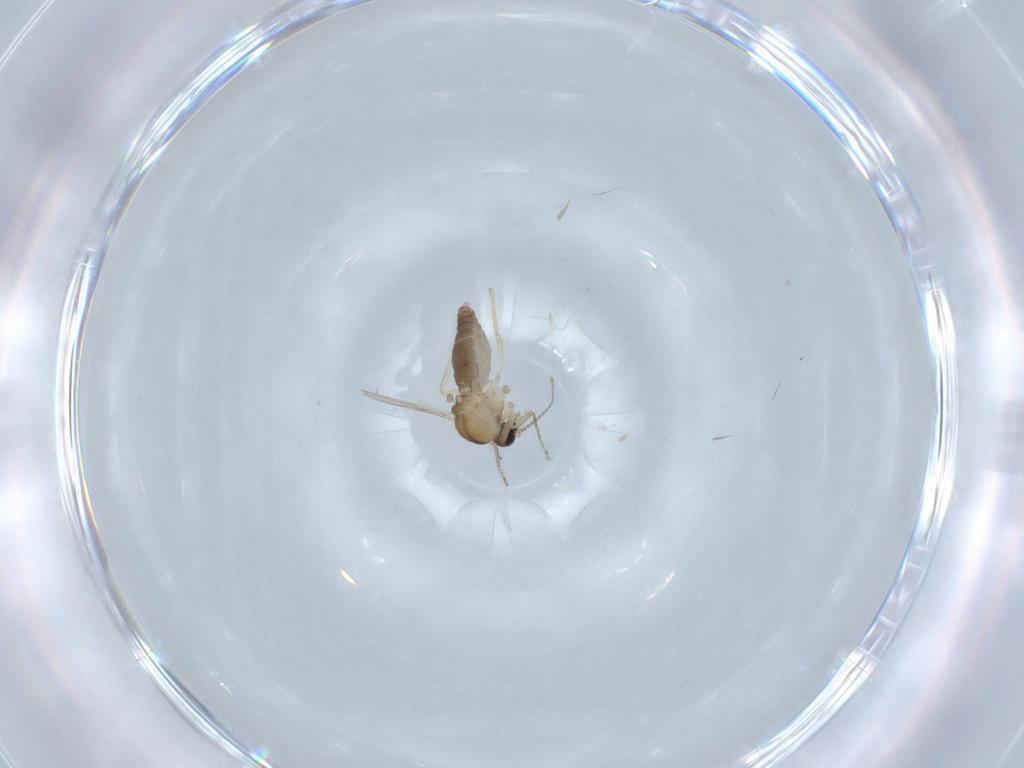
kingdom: Animalia
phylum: Arthropoda
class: Insecta
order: Diptera
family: Ceratopogonidae
